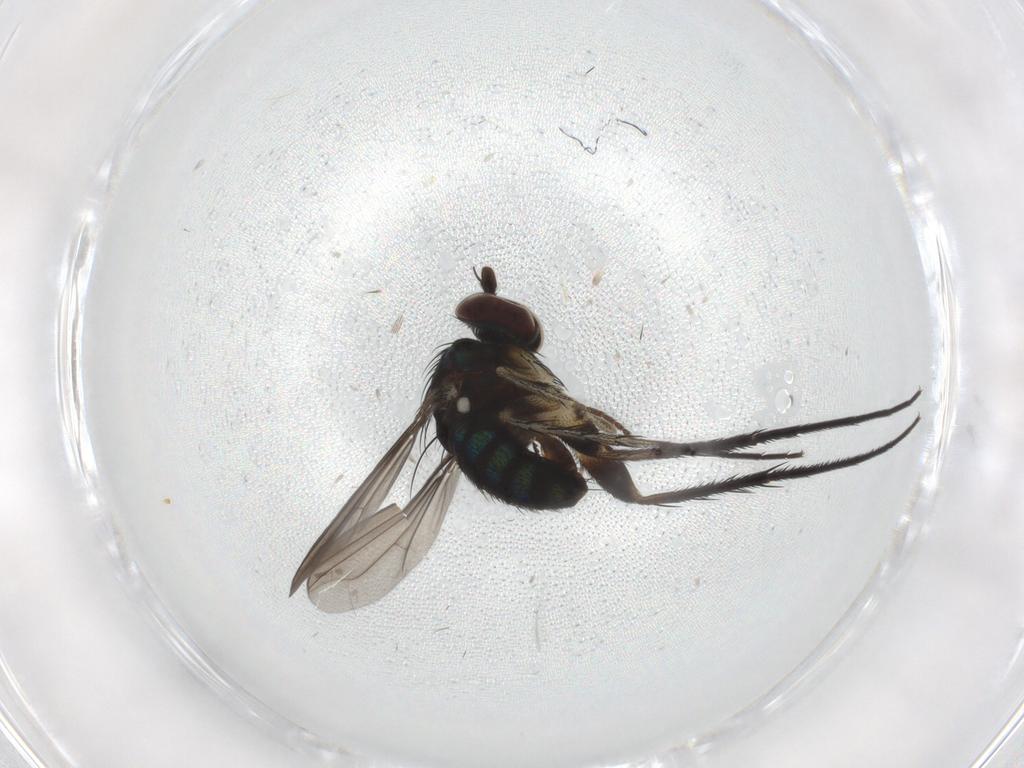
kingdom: Animalia
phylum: Arthropoda
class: Insecta
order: Diptera
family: Dolichopodidae
